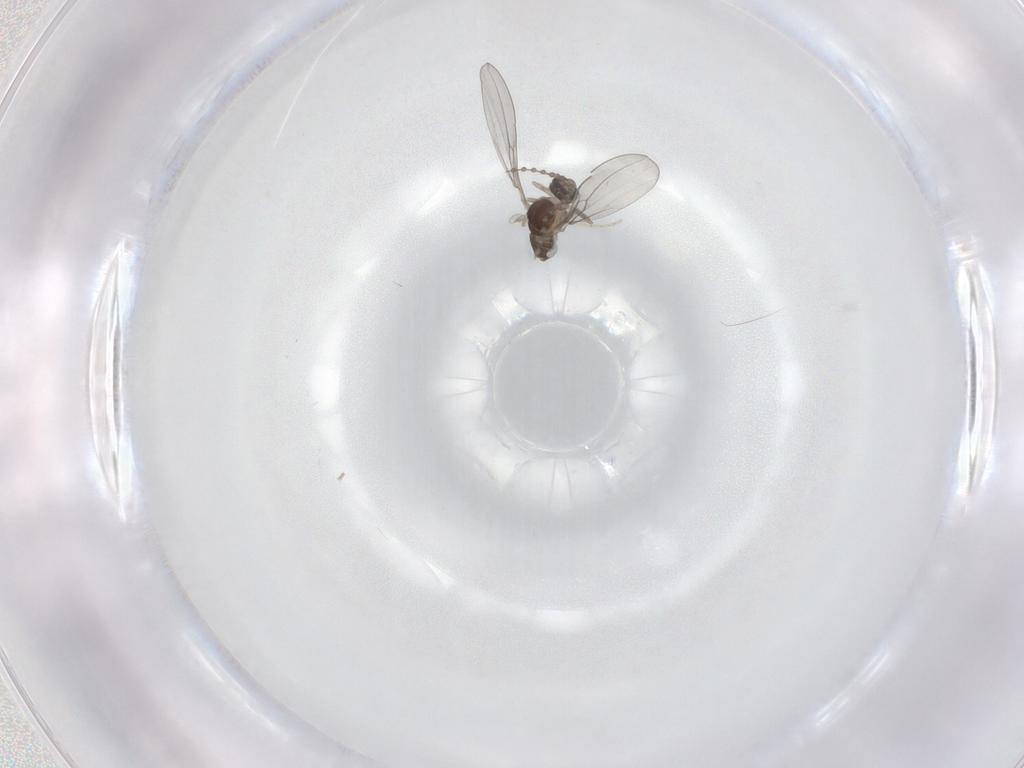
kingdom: Animalia
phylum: Arthropoda
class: Insecta
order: Diptera
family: Cecidomyiidae
